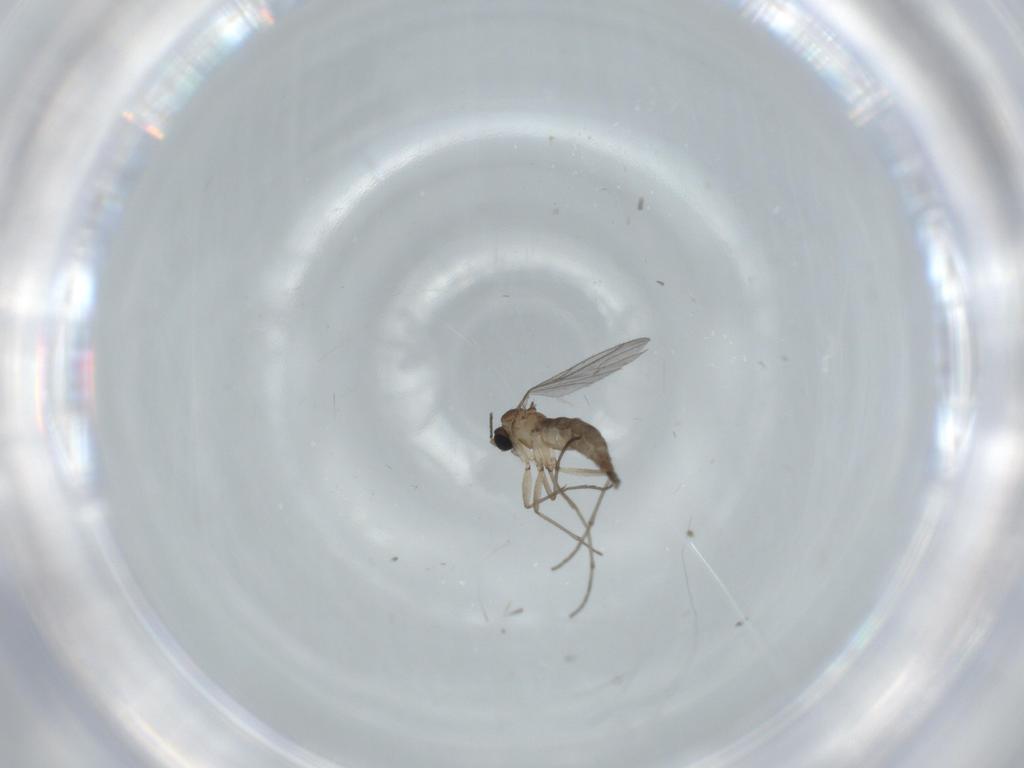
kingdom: Animalia
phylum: Arthropoda
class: Insecta
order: Diptera
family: Sciaridae
